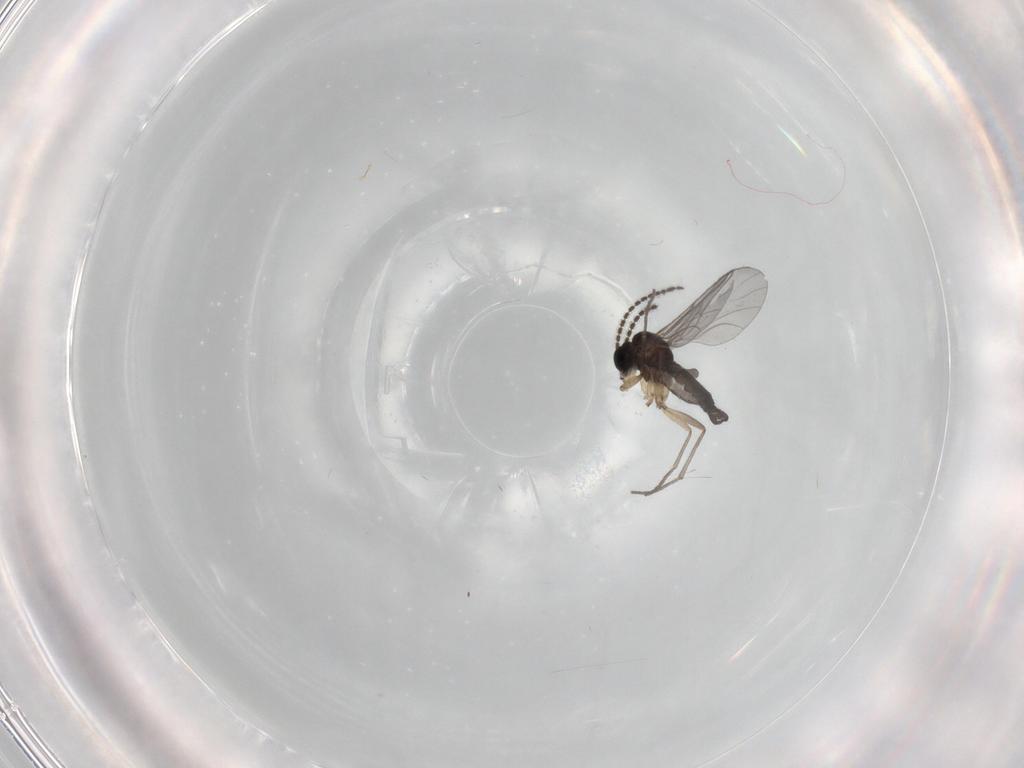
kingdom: Animalia
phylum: Arthropoda
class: Insecta
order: Diptera
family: Sciaridae
